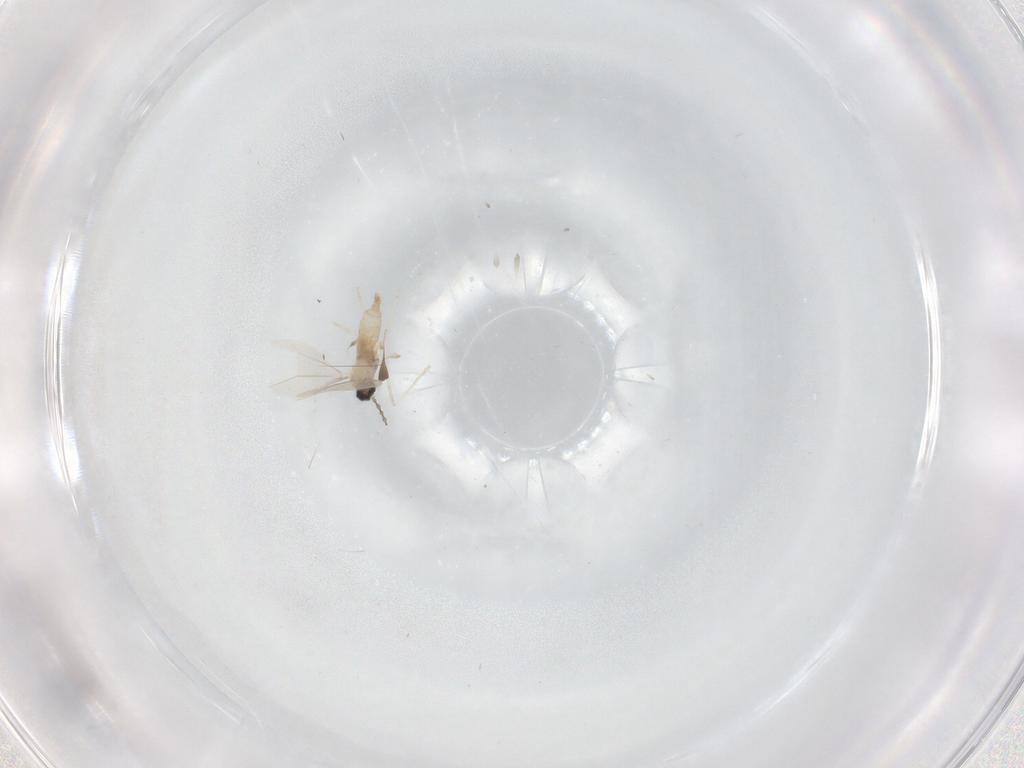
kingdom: Animalia
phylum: Arthropoda
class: Insecta
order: Diptera
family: Cecidomyiidae
